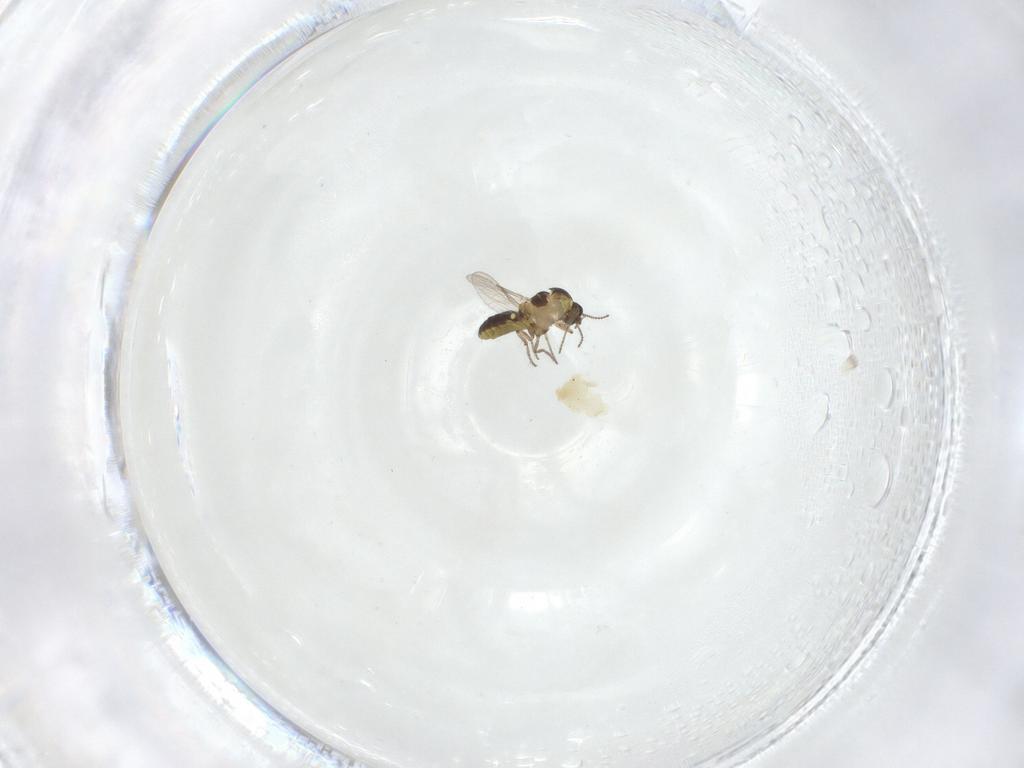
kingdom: Animalia
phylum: Arthropoda
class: Insecta
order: Diptera
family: Ceratopogonidae
